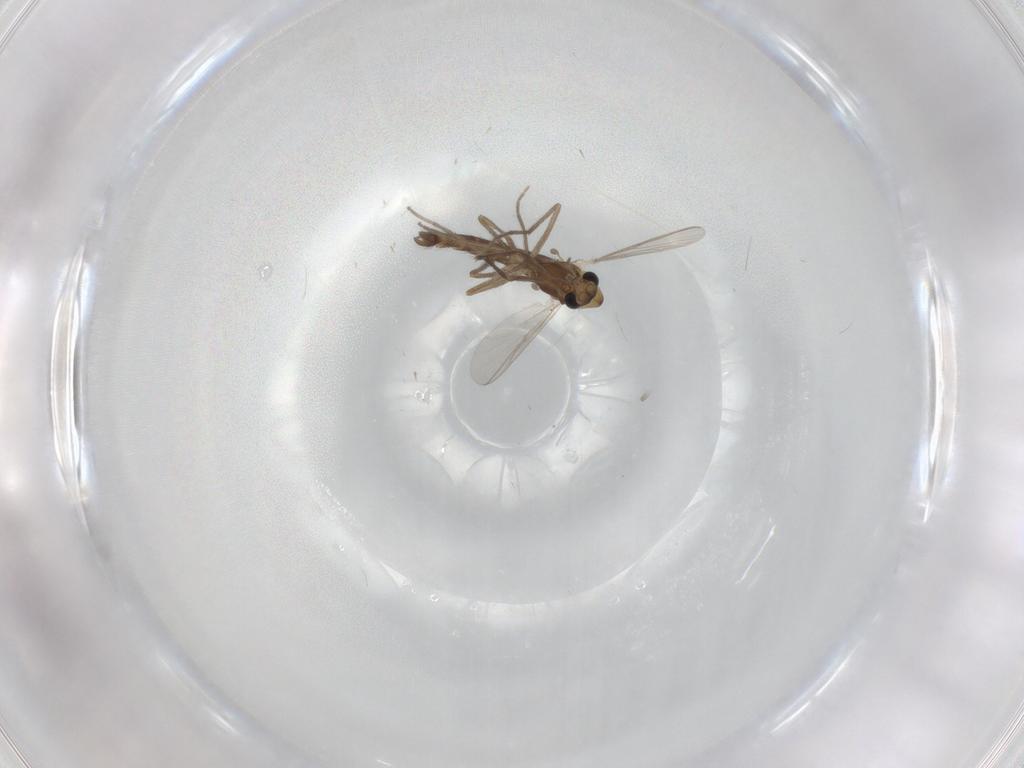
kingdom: Animalia
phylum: Arthropoda
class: Insecta
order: Diptera
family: Chironomidae
